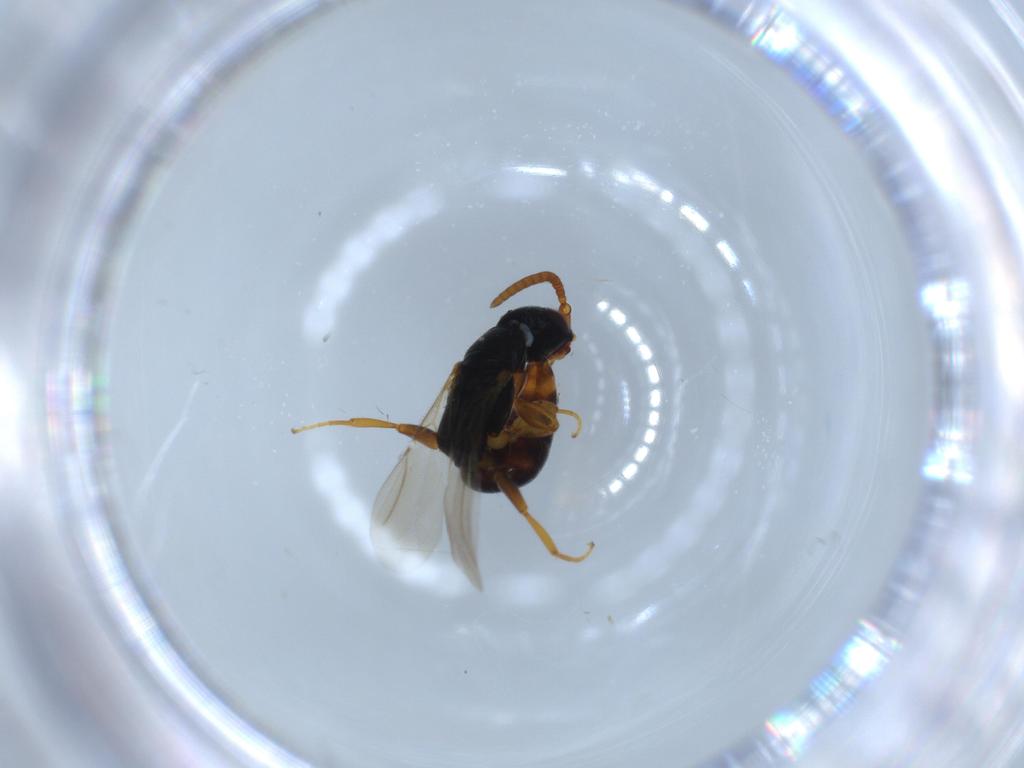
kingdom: Animalia
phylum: Arthropoda
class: Insecta
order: Hymenoptera
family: Bethylidae
